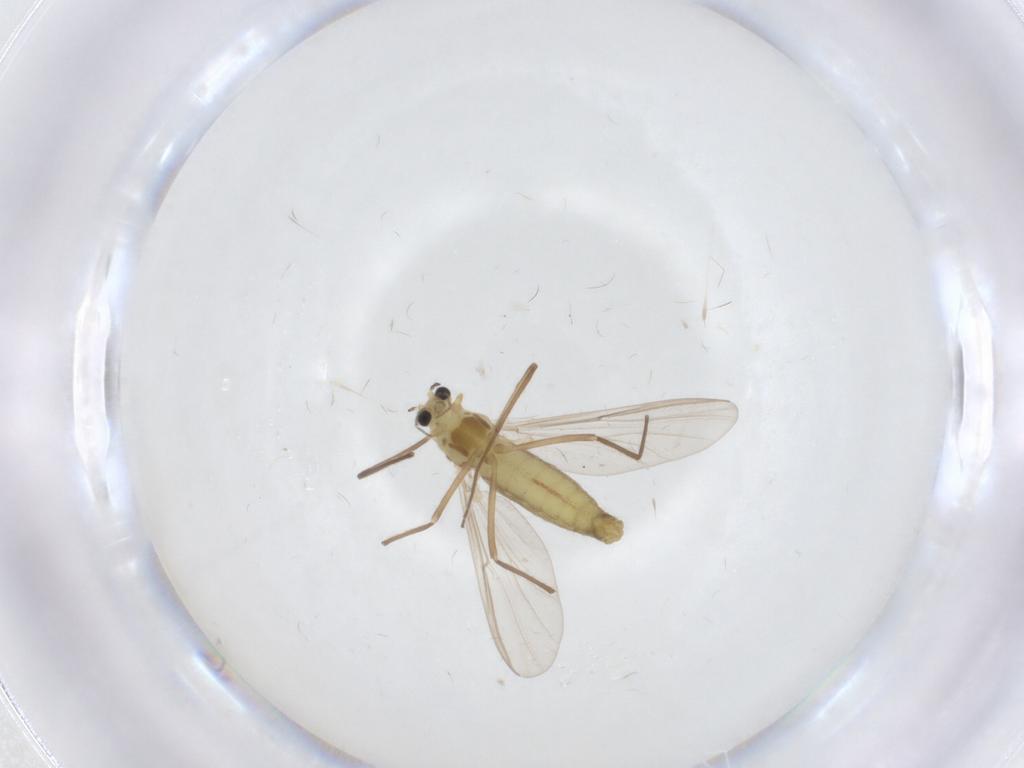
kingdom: Animalia
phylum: Arthropoda
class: Insecta
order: Diptera
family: Chironomidae
